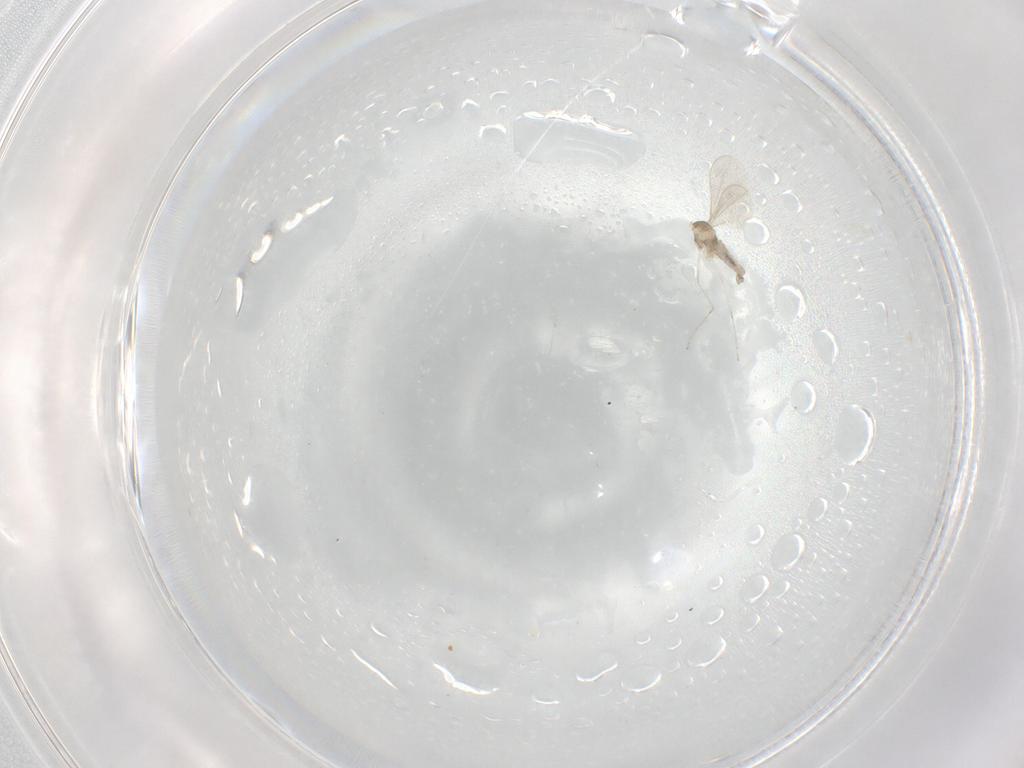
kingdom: Animalia
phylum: Arthropoda
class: Insecta
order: Diptera
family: Cecidomyiidae
